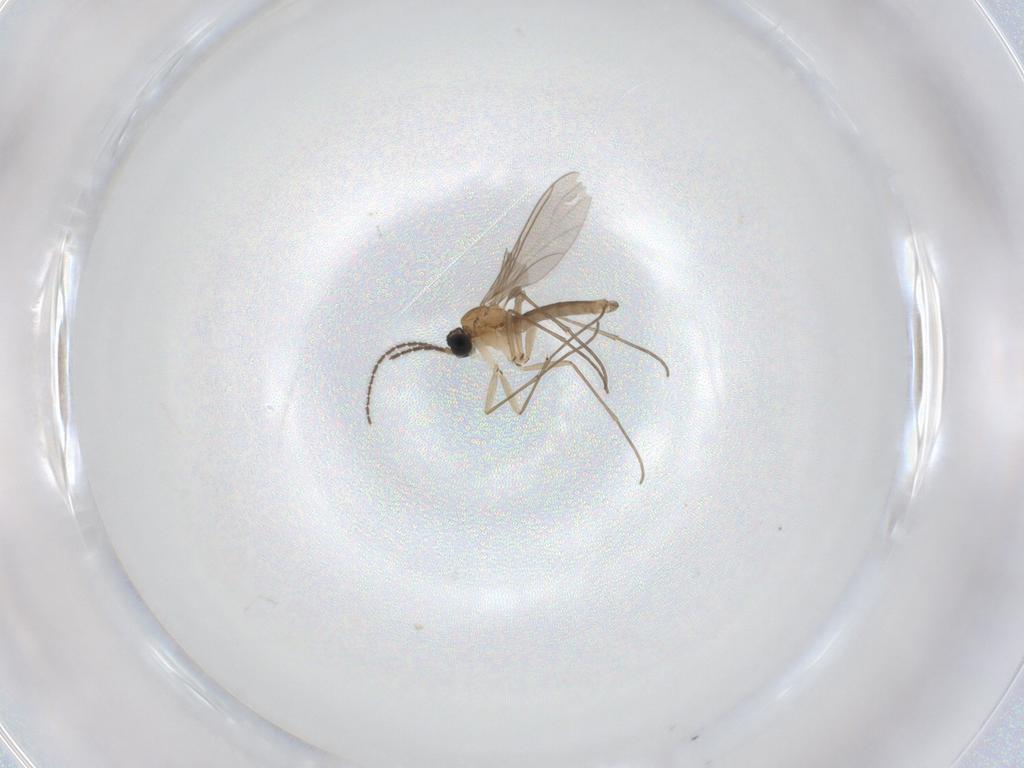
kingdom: Animalia
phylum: Arthropoda
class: Insecta
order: Diptera
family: Sciaridae
